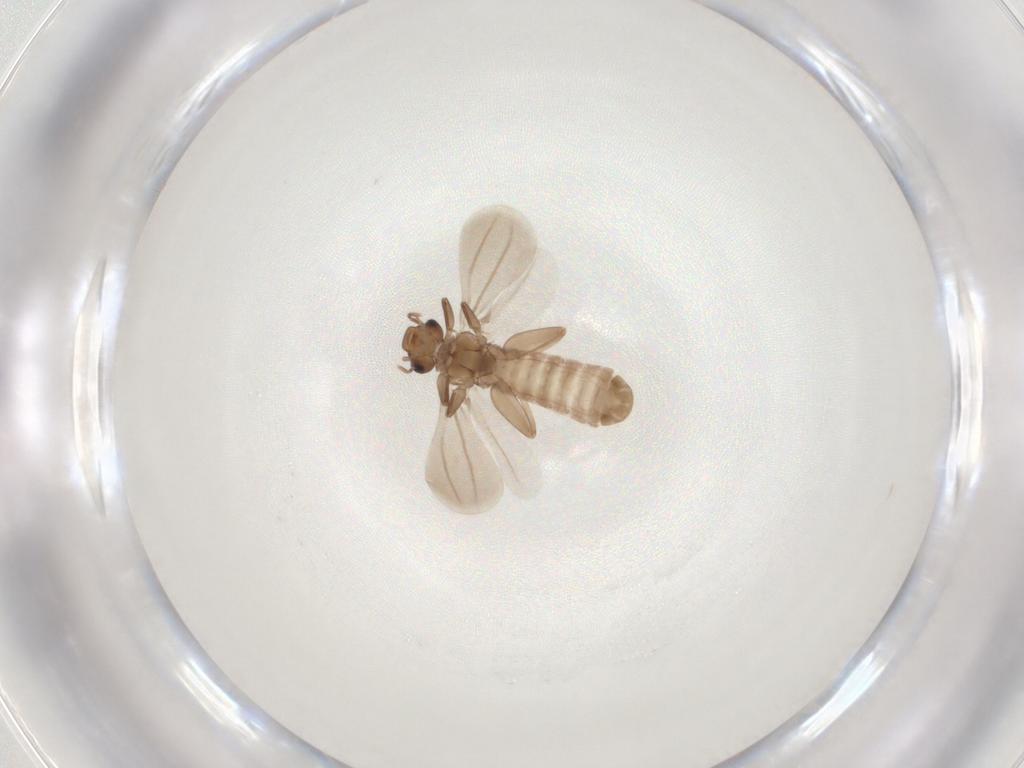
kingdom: Animalia
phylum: Arthropoda
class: Insecta
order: Psocodea
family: Liposcelididae
